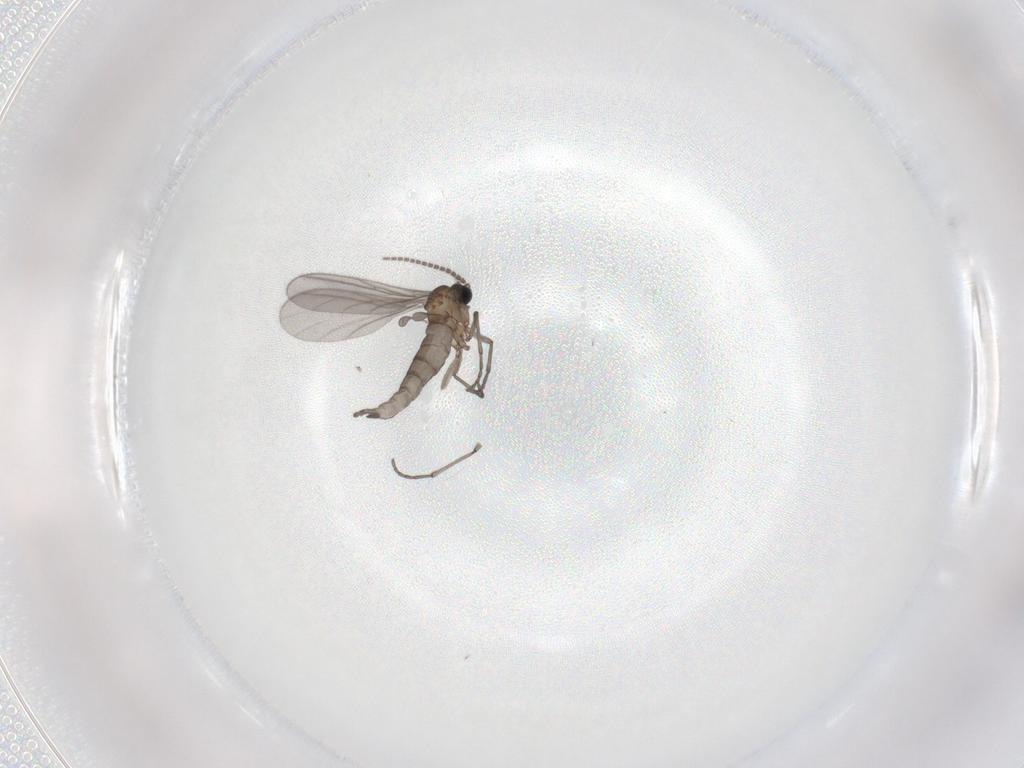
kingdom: Animalia
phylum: Arthropoda
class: Insecta
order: Diptera
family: Sciaridae
